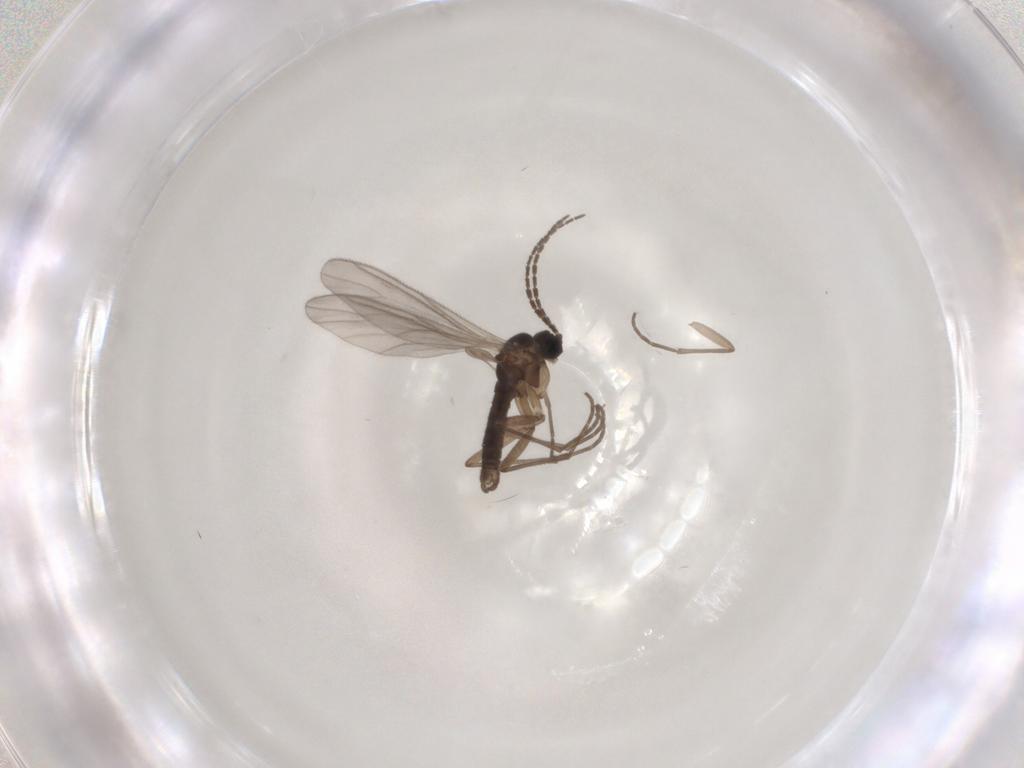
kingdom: Animalia
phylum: Arthropoda
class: Insecta
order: Diptera
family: Sciaridae
